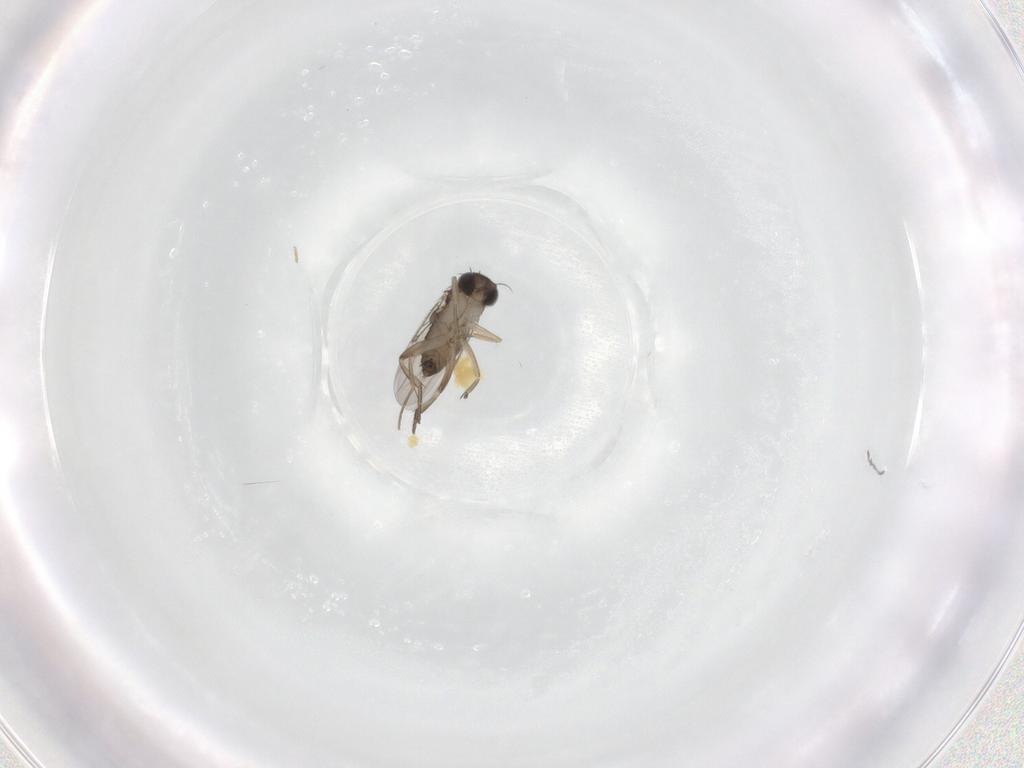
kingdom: Animalia
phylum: Arthropoda
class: Insecta
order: Diptera
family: Phoridae
